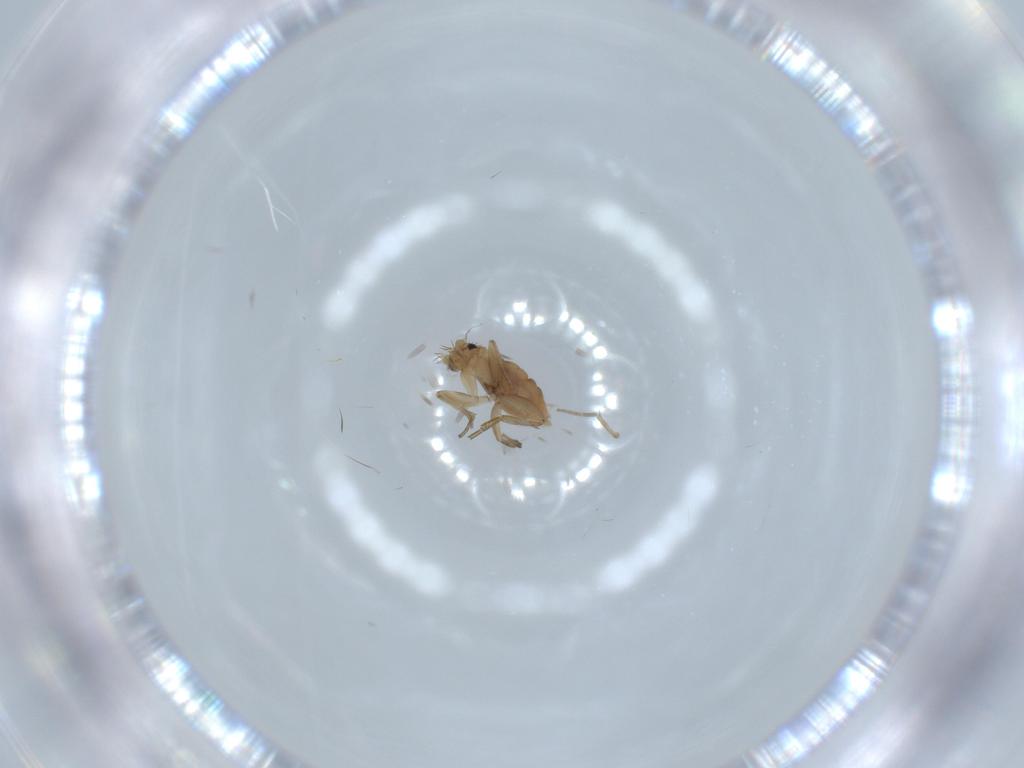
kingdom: Animalia
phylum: Arthropoda
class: Insecta
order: Diptera
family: Phoridae
